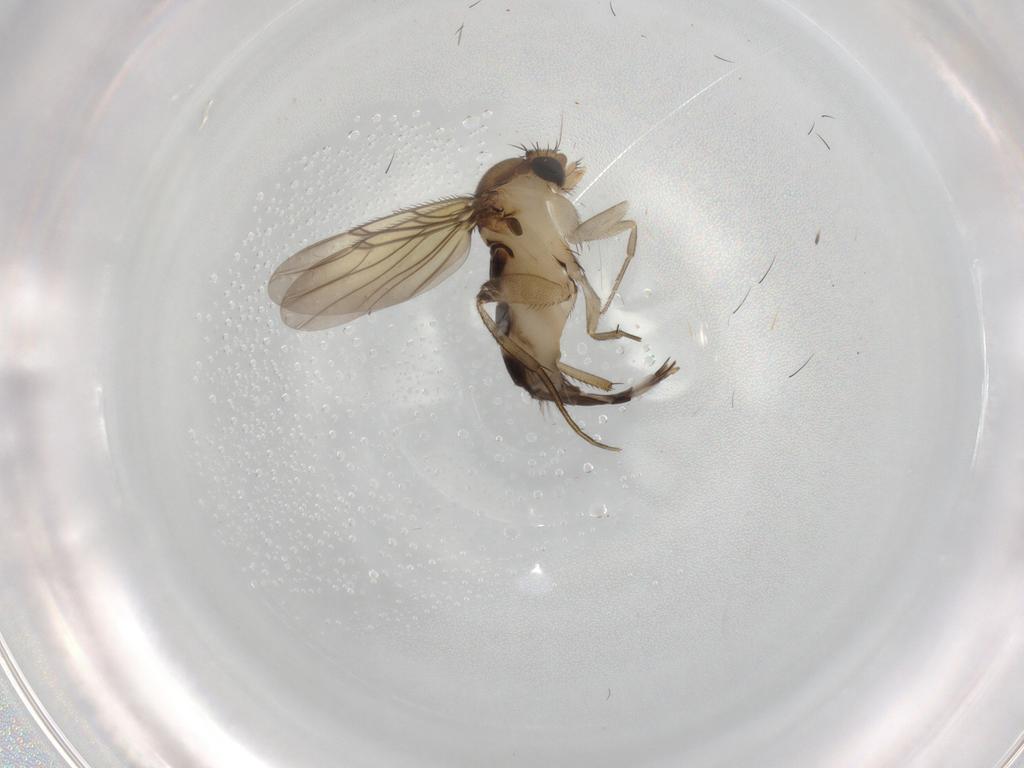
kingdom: Animalia
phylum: Arthropoda
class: Insecta
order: Diptera
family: Phoridae
